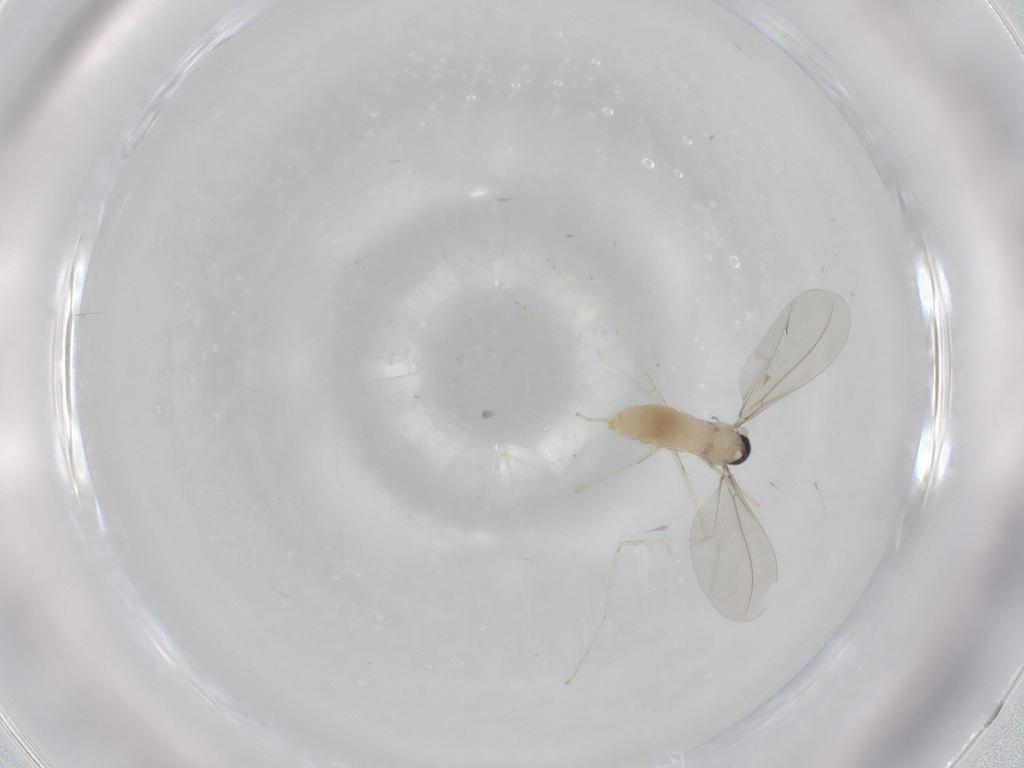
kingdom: Animalia
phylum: Arthropoda
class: Insecta
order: Diptera
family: Cecidomyiidae
